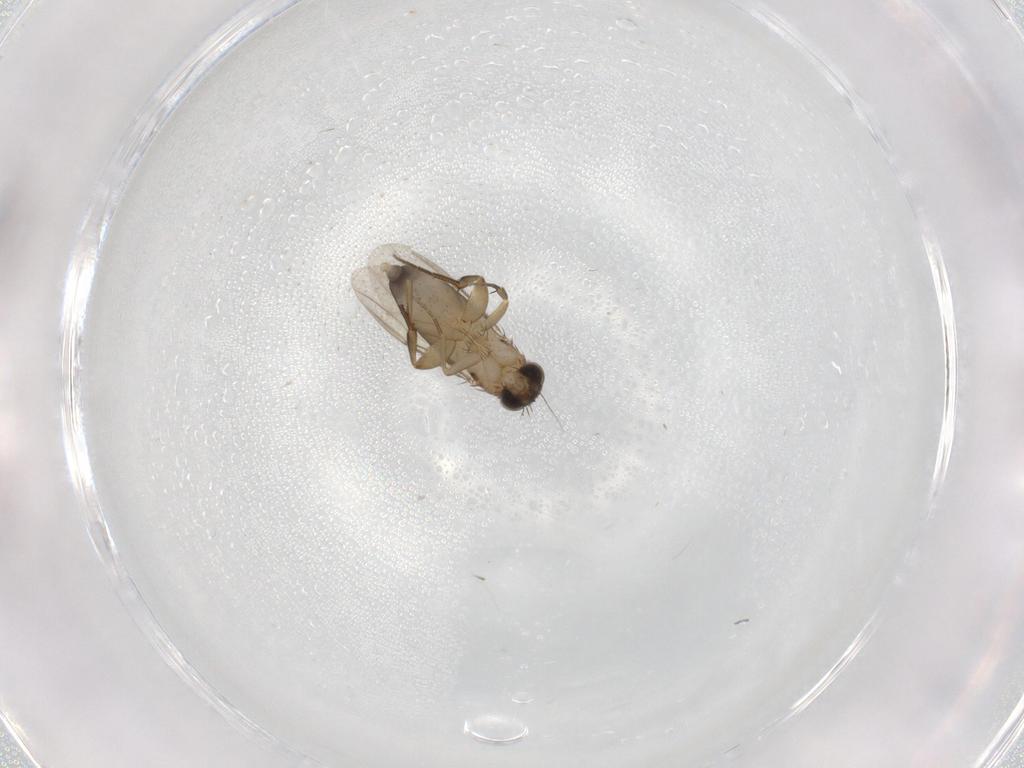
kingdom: Animalia
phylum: Arthropoda
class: Insecta
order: Diptera
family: Phoridae
